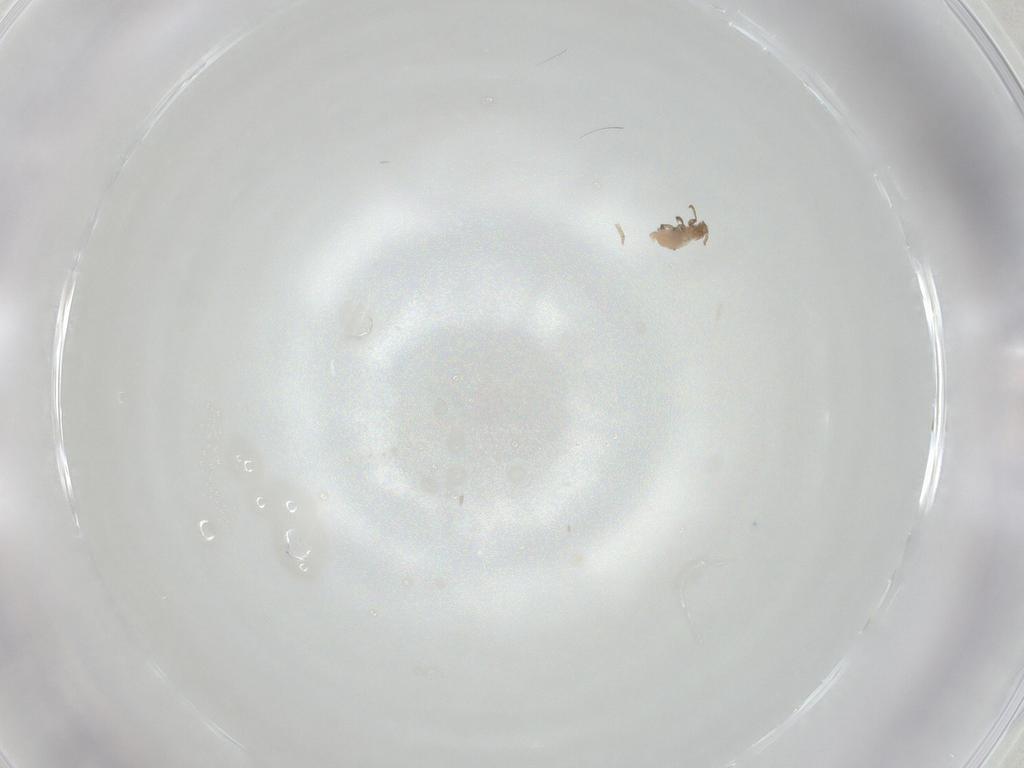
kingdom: Animalia
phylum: Arthropoda
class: Insecta
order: Hemiptera
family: Aphididae
